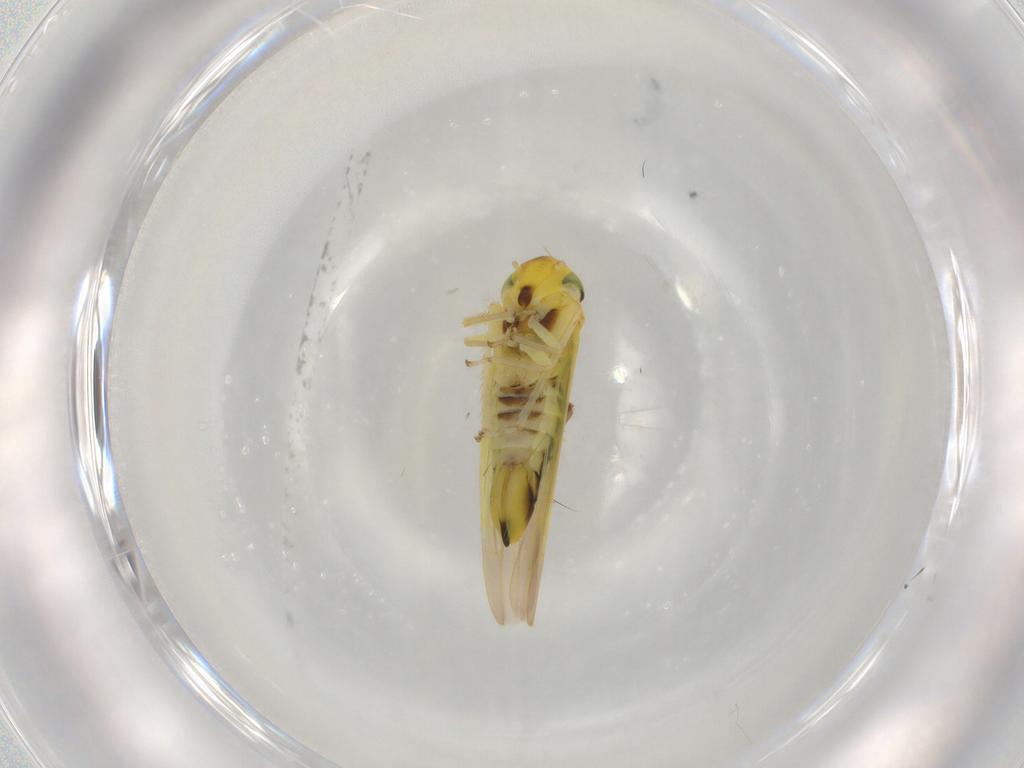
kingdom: Animalia
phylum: Arthropoda
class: Insecta
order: Hemiptera
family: Cicadellidae
